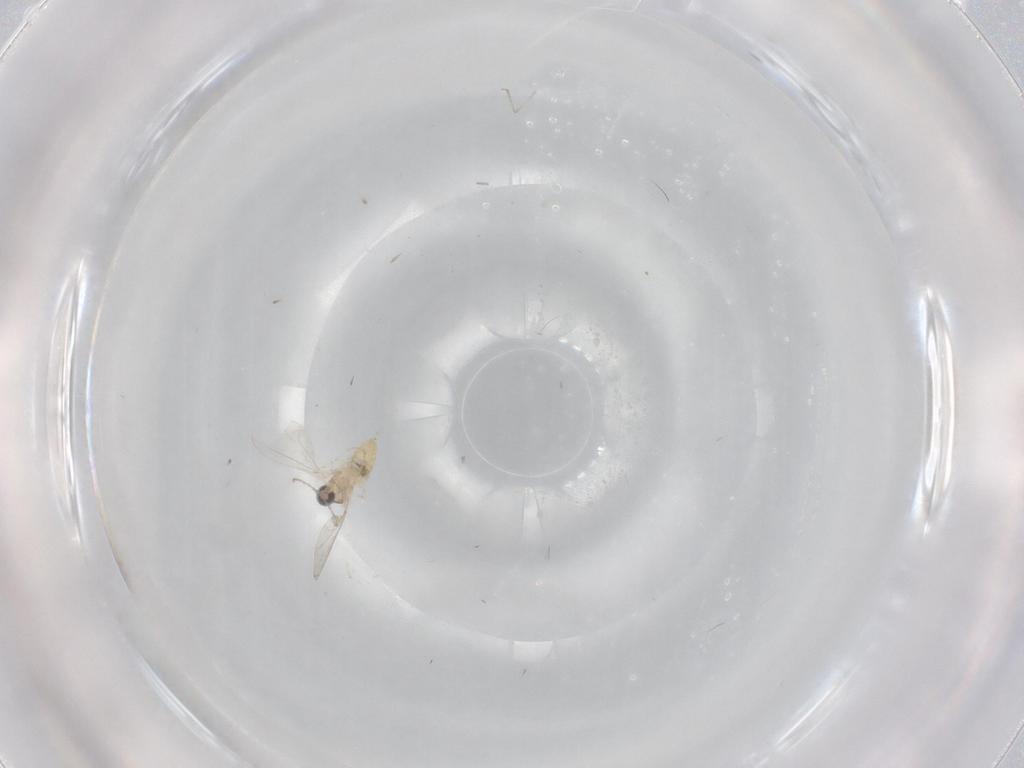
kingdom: Animalia
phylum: Arthropoda
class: Insecta
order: Diptera
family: Cecidomyiidae
